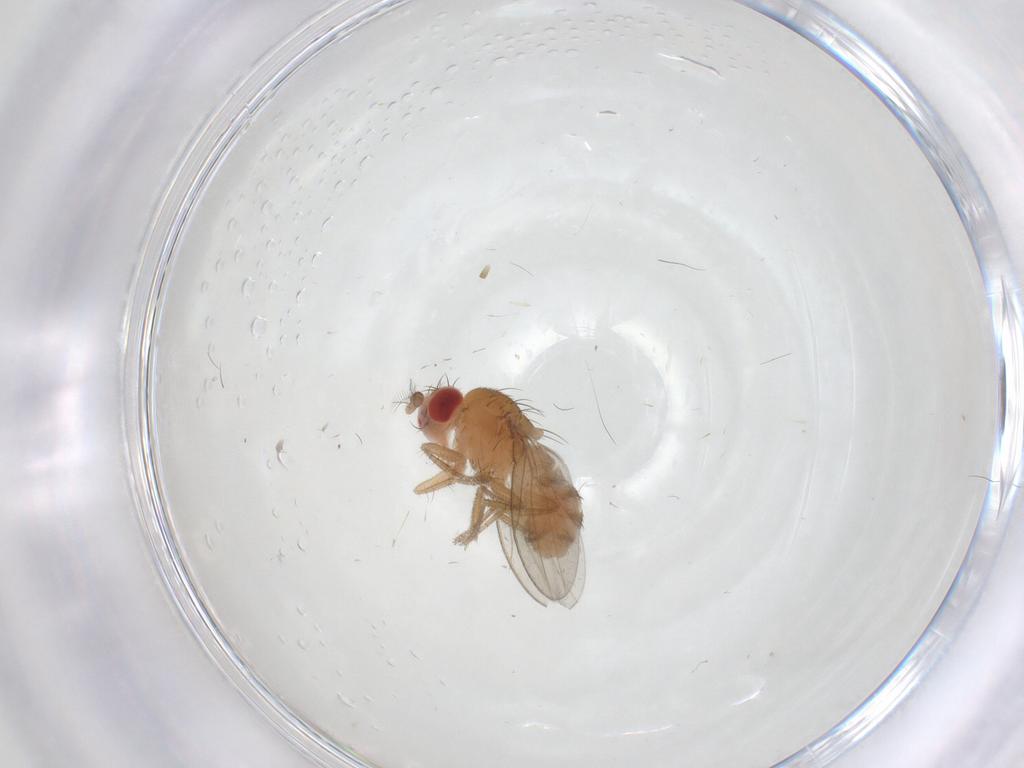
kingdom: Animalia
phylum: Arthropoda
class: Insecta
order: Diptera
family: Drosophilidae
